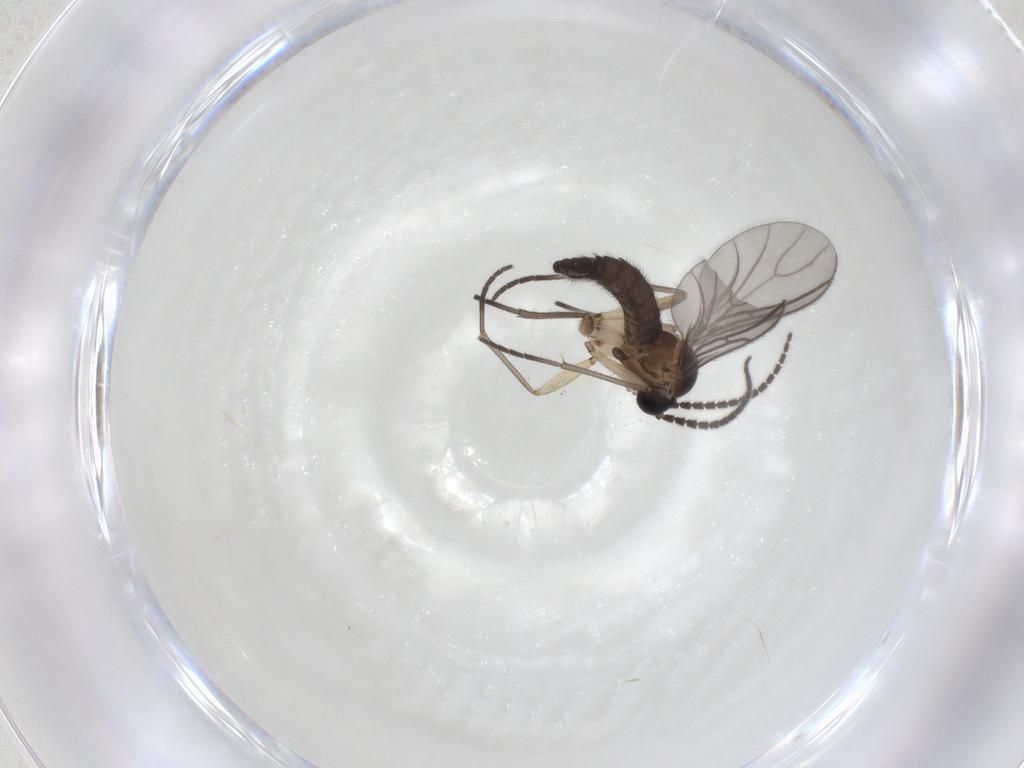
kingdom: Animalia
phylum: Arthropoda
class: Insecta
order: Diptera
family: Sciaridae
